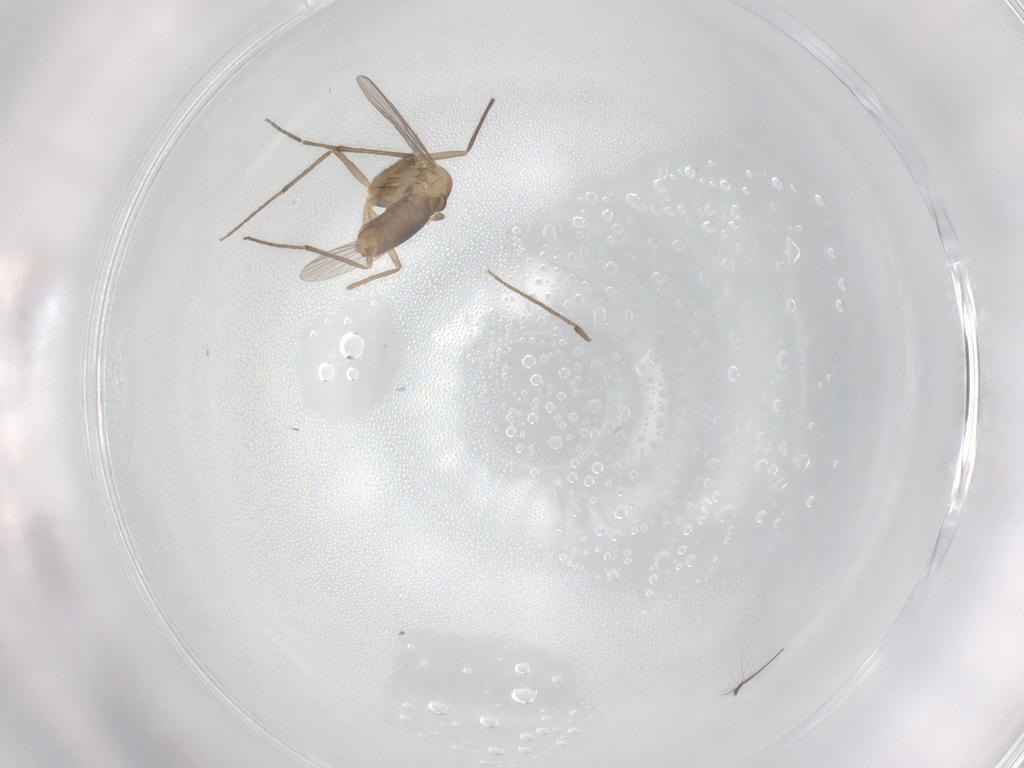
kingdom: Animalia
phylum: Arthropoda
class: Insecta
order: Diptera
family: Chironomidae
